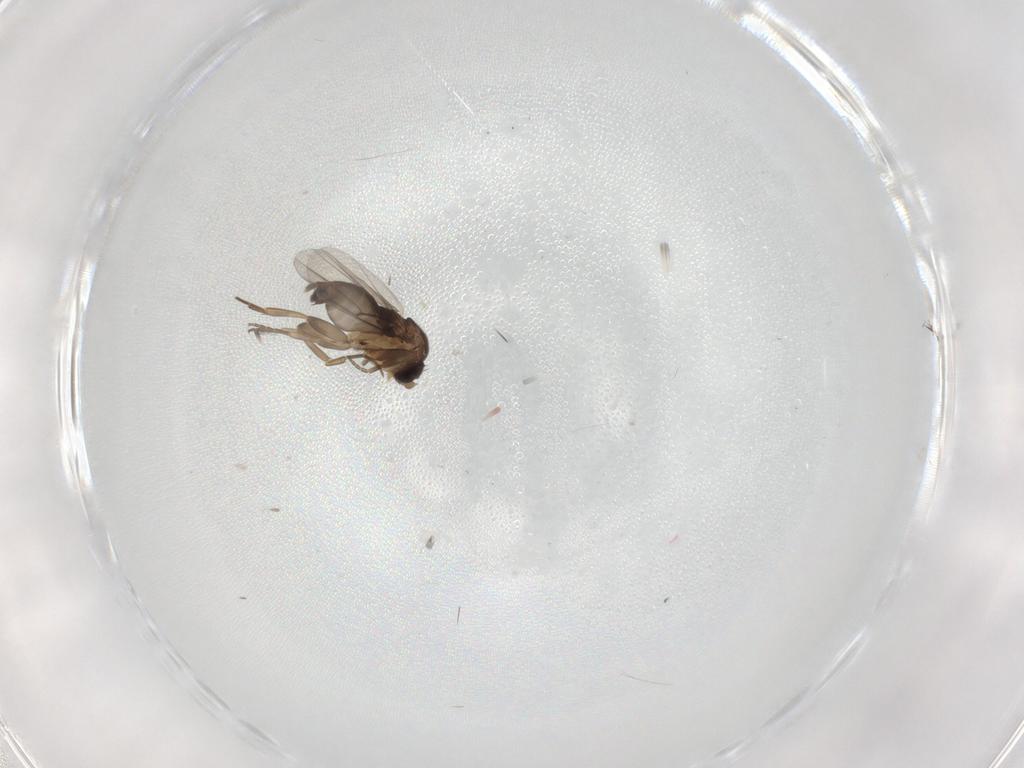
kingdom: Animalia
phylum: Arthropoda
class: Insecta
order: Diptera
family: Phoridae
